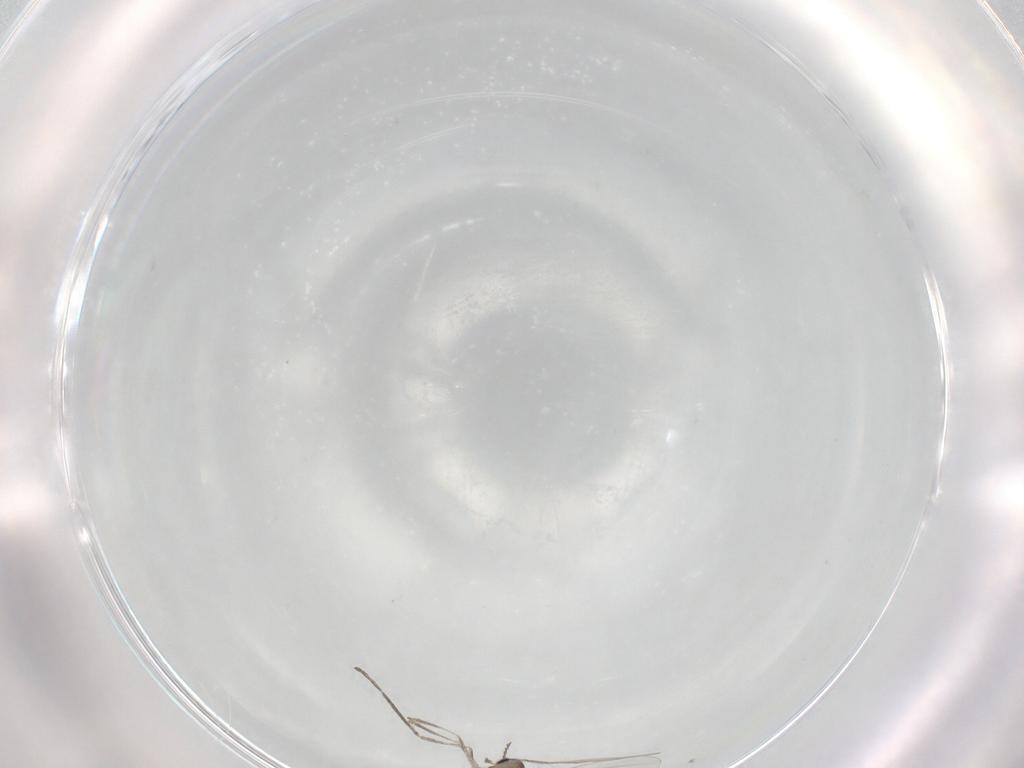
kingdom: Animalia
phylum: Arthropoda
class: Insecta
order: Diptera
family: Cecidomyiidae
